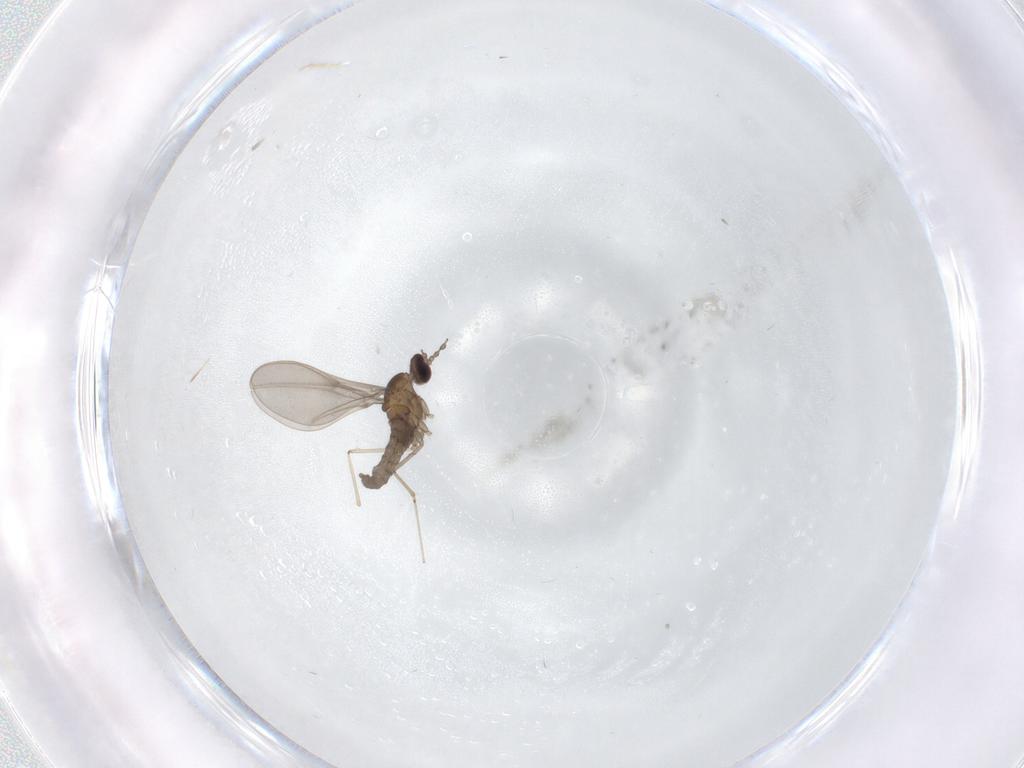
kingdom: Animalia
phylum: Arthropoda
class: Insecta
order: Diptera
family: Cecidomyiidae
